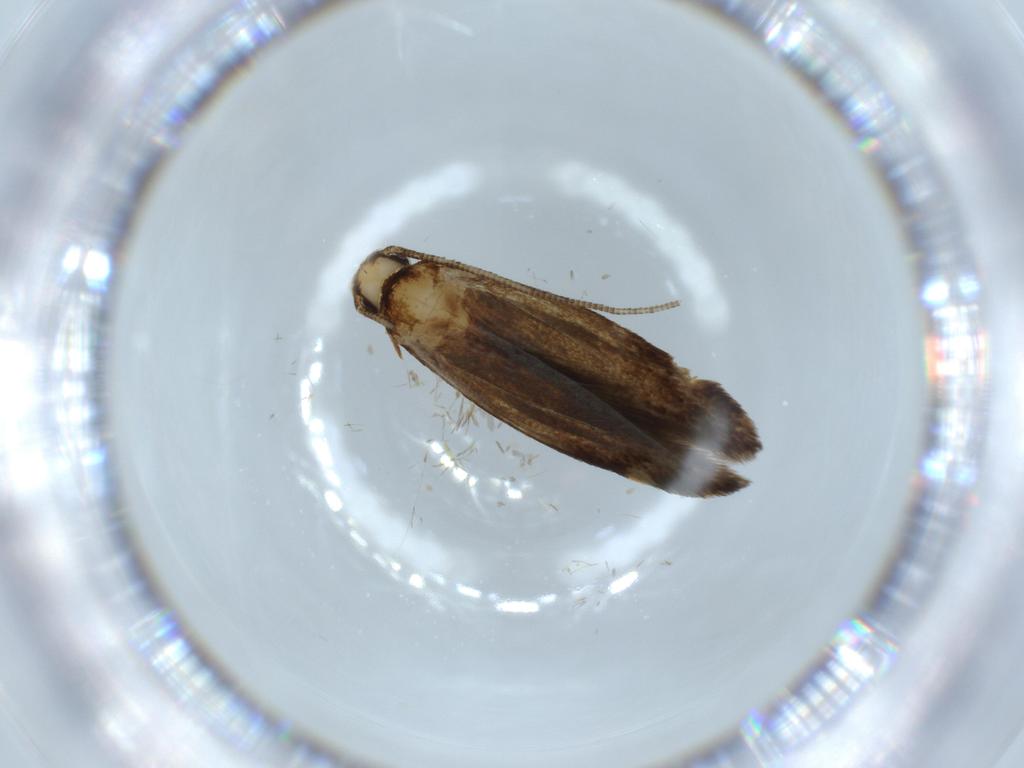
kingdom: Animalia
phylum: Arthropoda
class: Insecta
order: Lepidoptera
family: Tineidae
